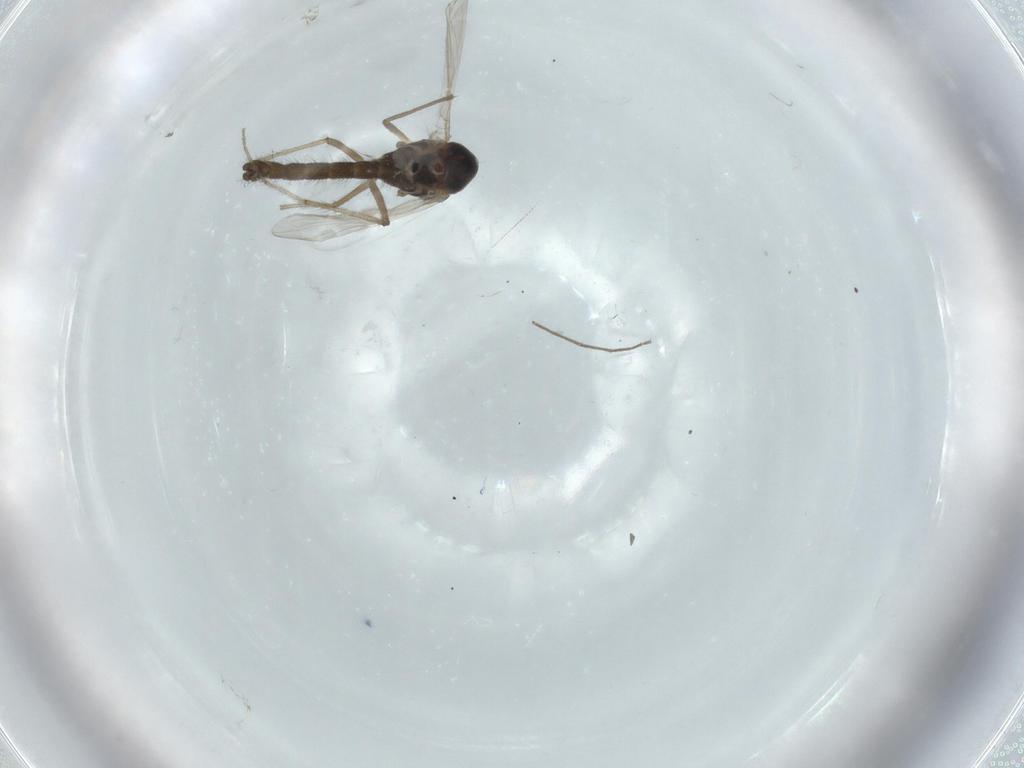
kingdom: Animalia
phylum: Arthropoda
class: Insecta
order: Diptera
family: Chironomidae
